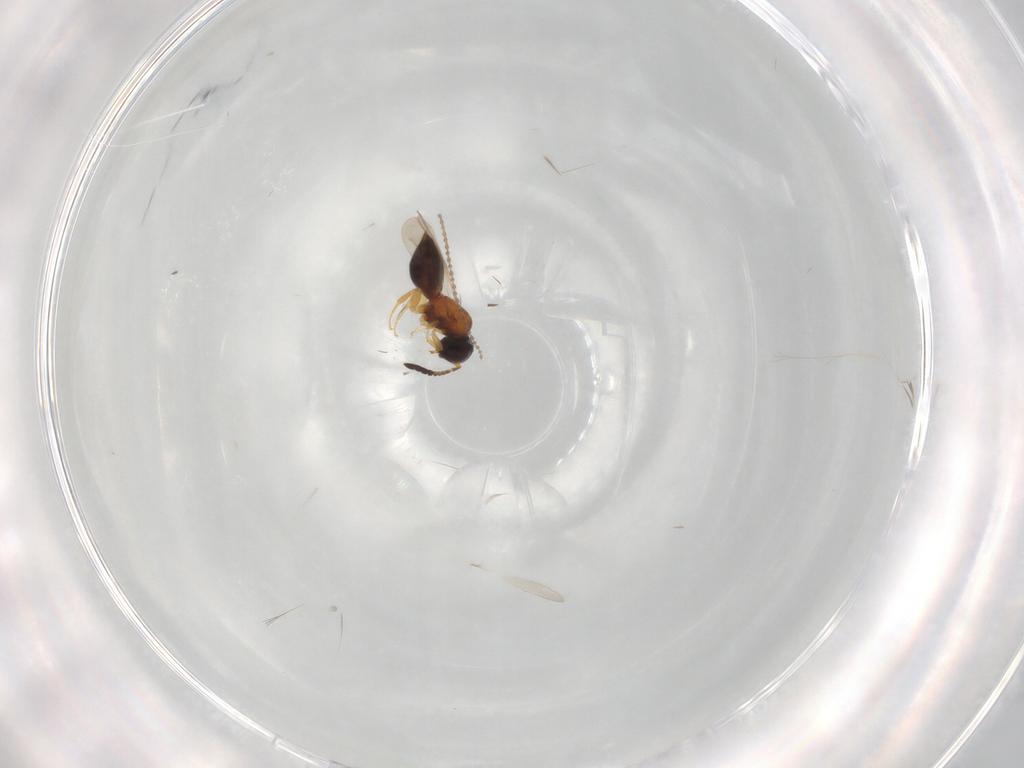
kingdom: Animalia
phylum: Arthropoda
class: Insecta
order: Hymenoptera
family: Ceraphronidae
